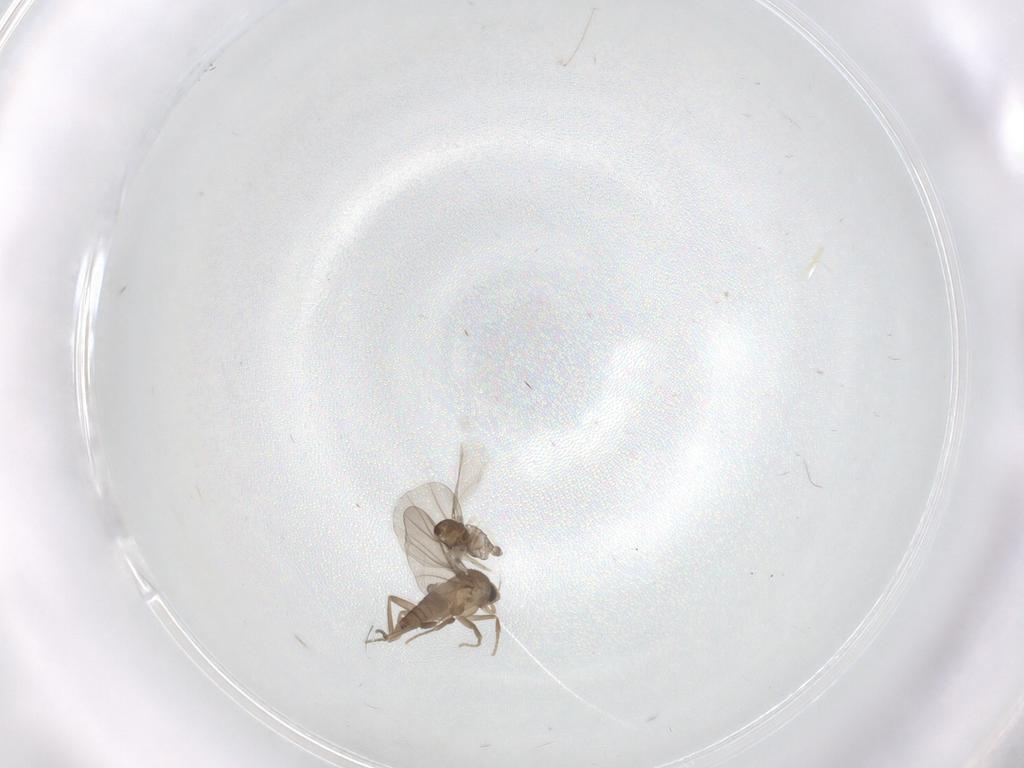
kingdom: Animalia
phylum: Arthropoda
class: Insecta
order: Diptera
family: Cecidomyiidae
